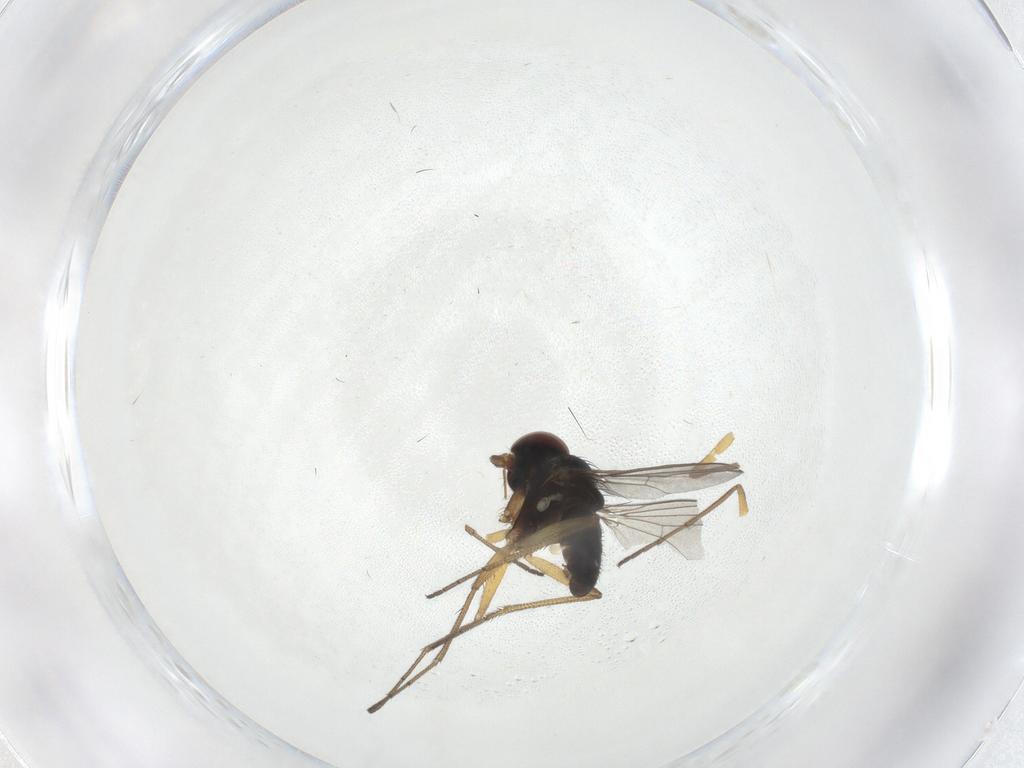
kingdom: Animalia
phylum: Arthropoda
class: Insecta
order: Diptera
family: Dolichopodidae
